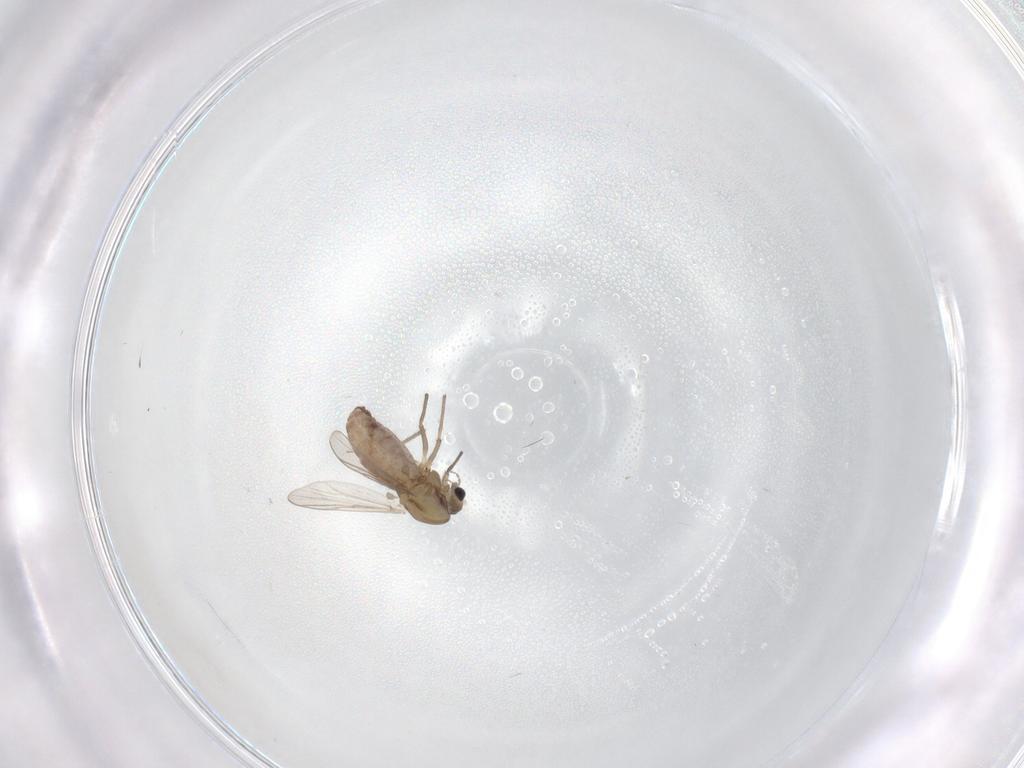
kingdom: Animalia
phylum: Arthropoda
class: Insecta
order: Diptera
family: Chironomidae
